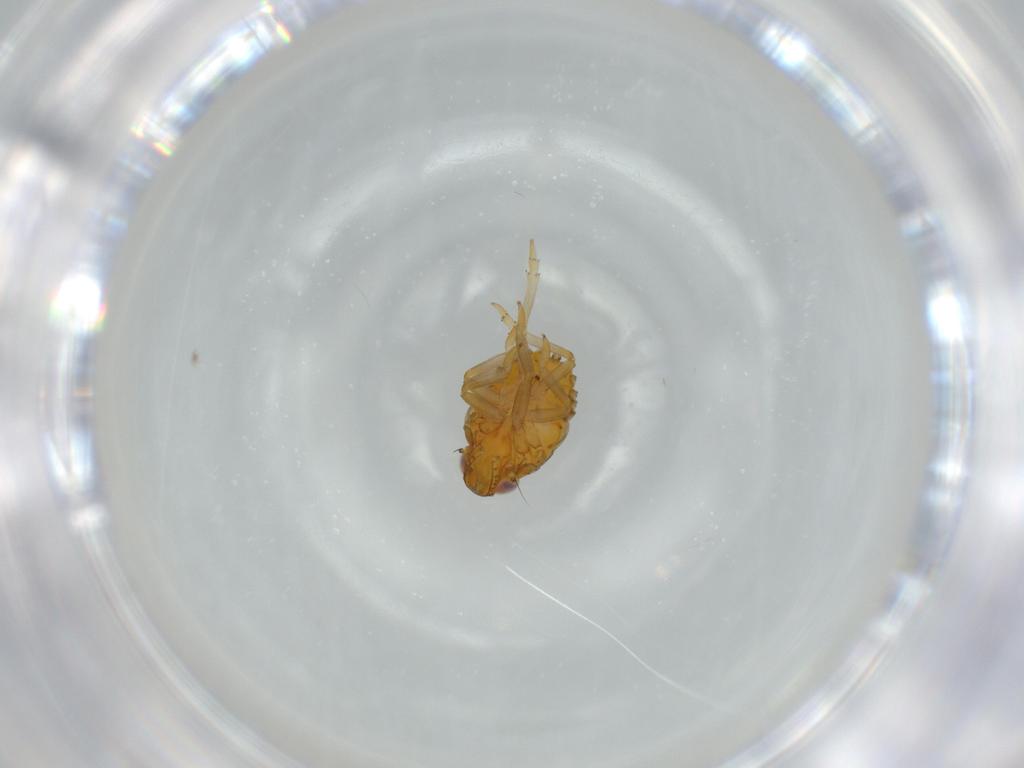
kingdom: Animalia
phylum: Arthropoda
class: Insecta
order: Hemiptera
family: Issidae
